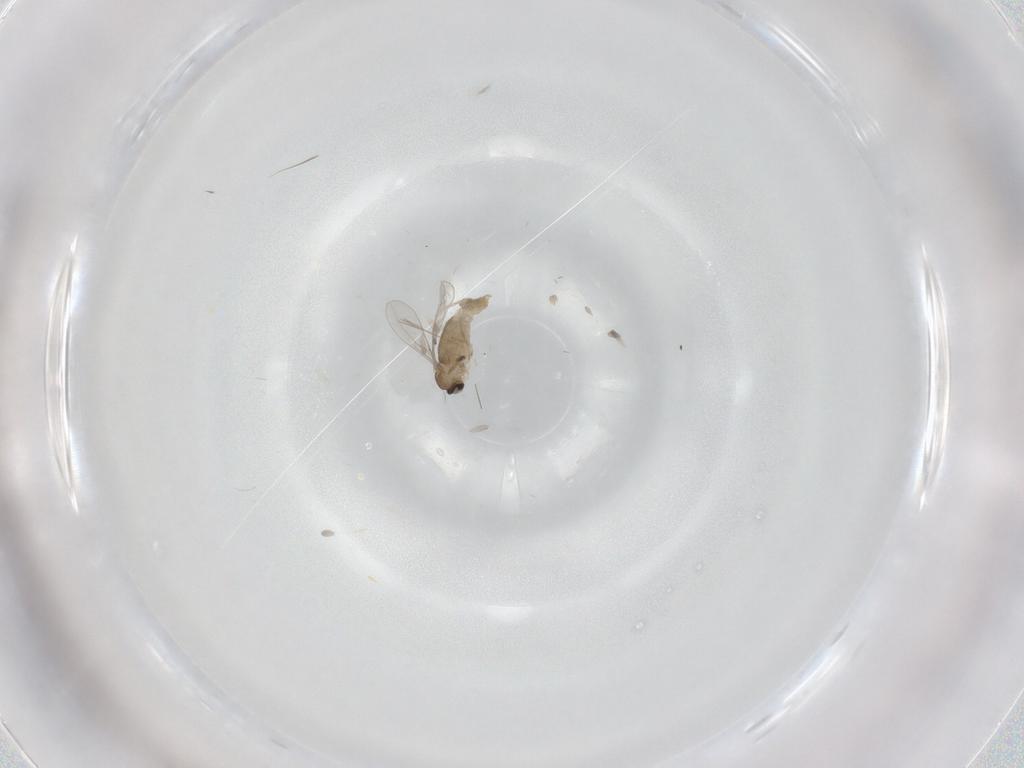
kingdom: Animalia
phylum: Arthropoda
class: Insecta
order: Diptera
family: Cecidomyiidae
